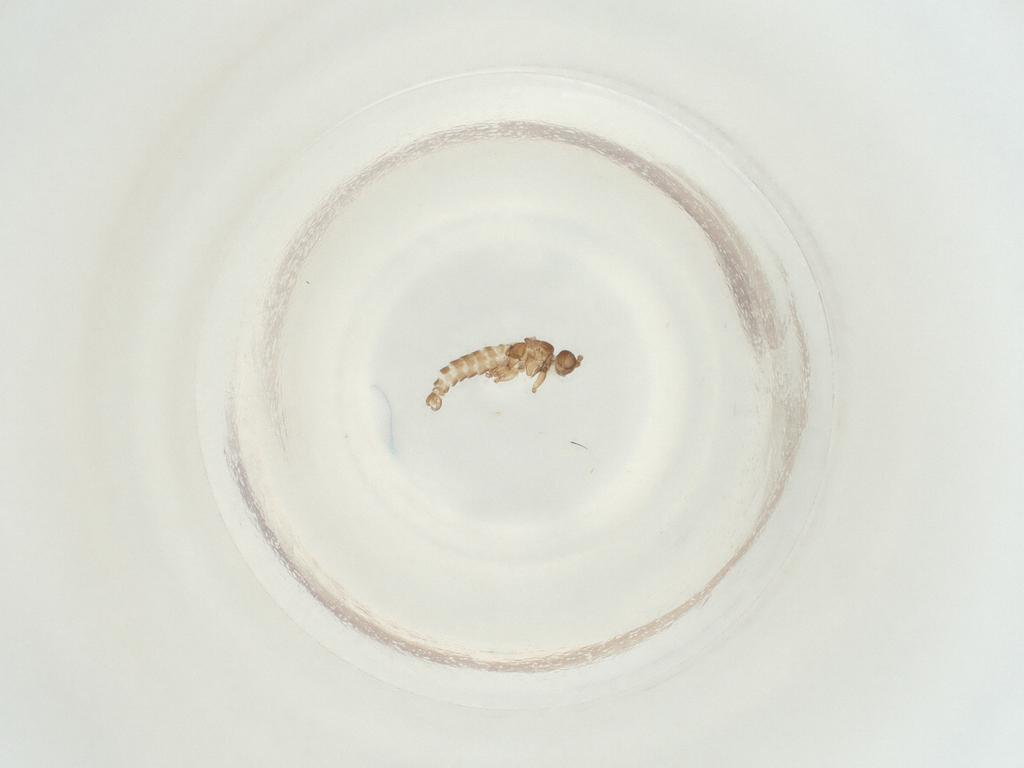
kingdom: Animalia
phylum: Arthropoda
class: Insecta
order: Diptera
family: Sciaridae
